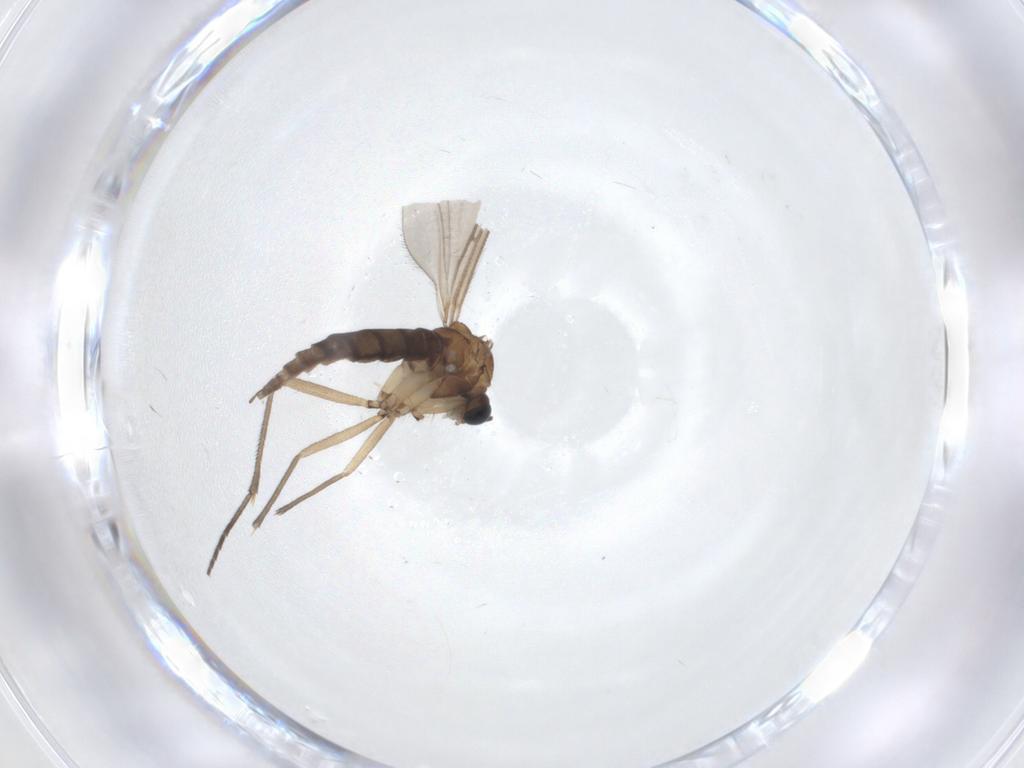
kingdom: Animalia
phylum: Arthropoda
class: Insecta
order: Diptera
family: Sciaridae
